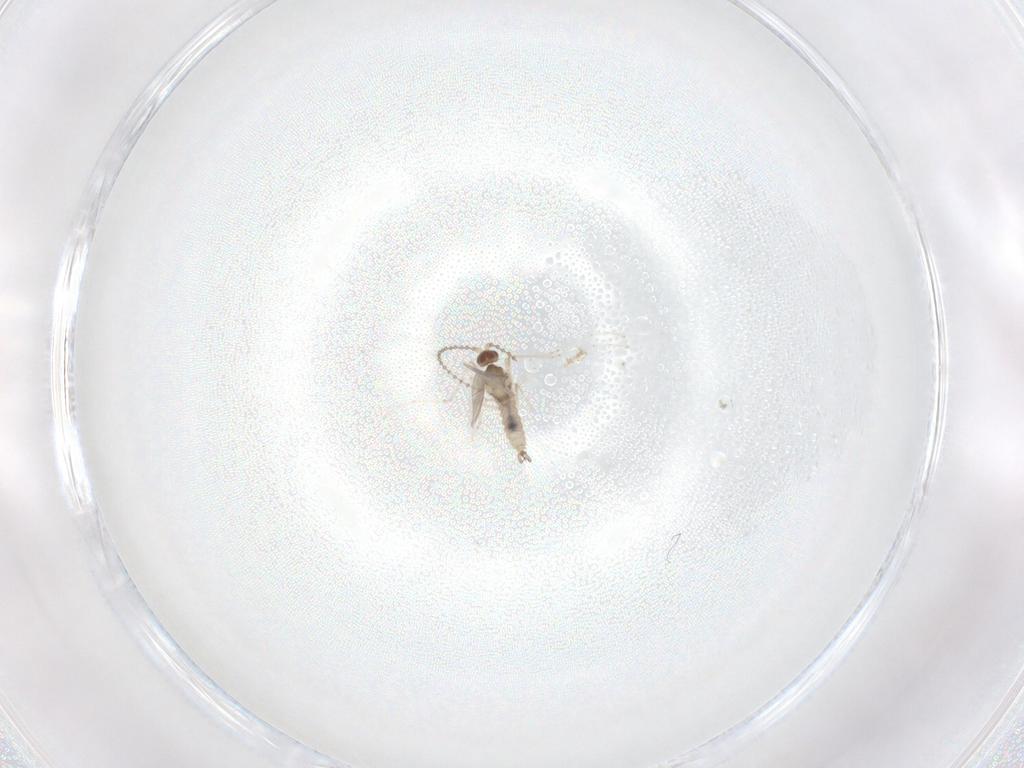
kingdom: Animalia
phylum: Arthropoda
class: Insecta
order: Diptera
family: Cecidomyiidae
